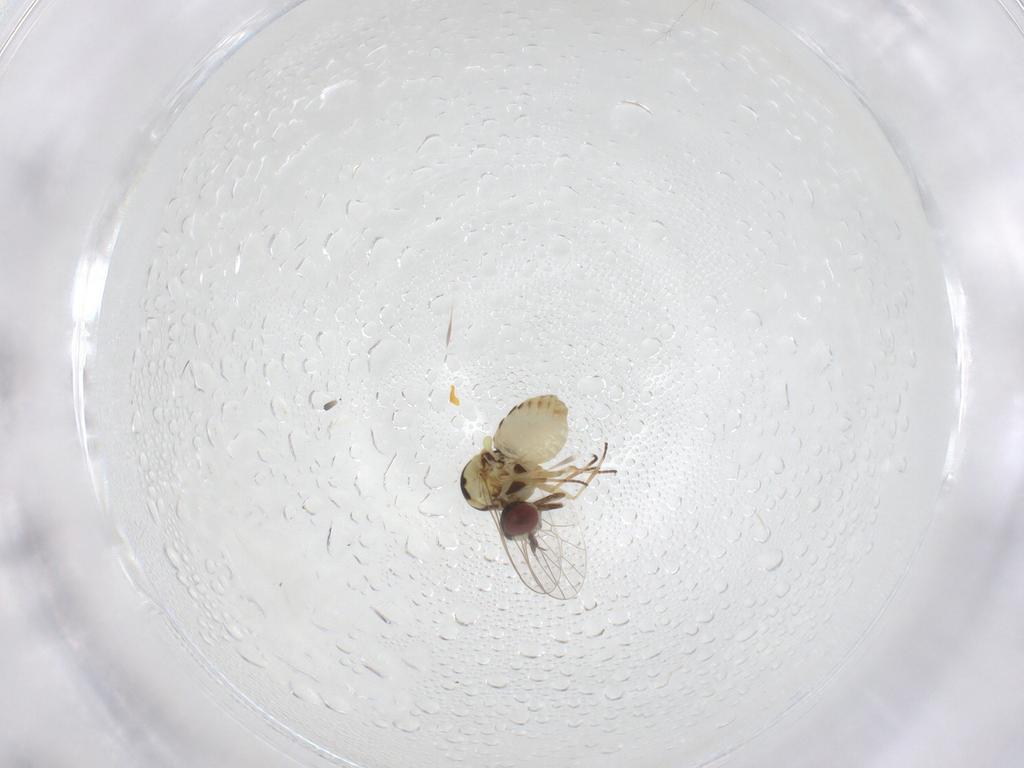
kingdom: Animalia
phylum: Arthropoda
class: Insecta
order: Diptera
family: Bombyliidae
